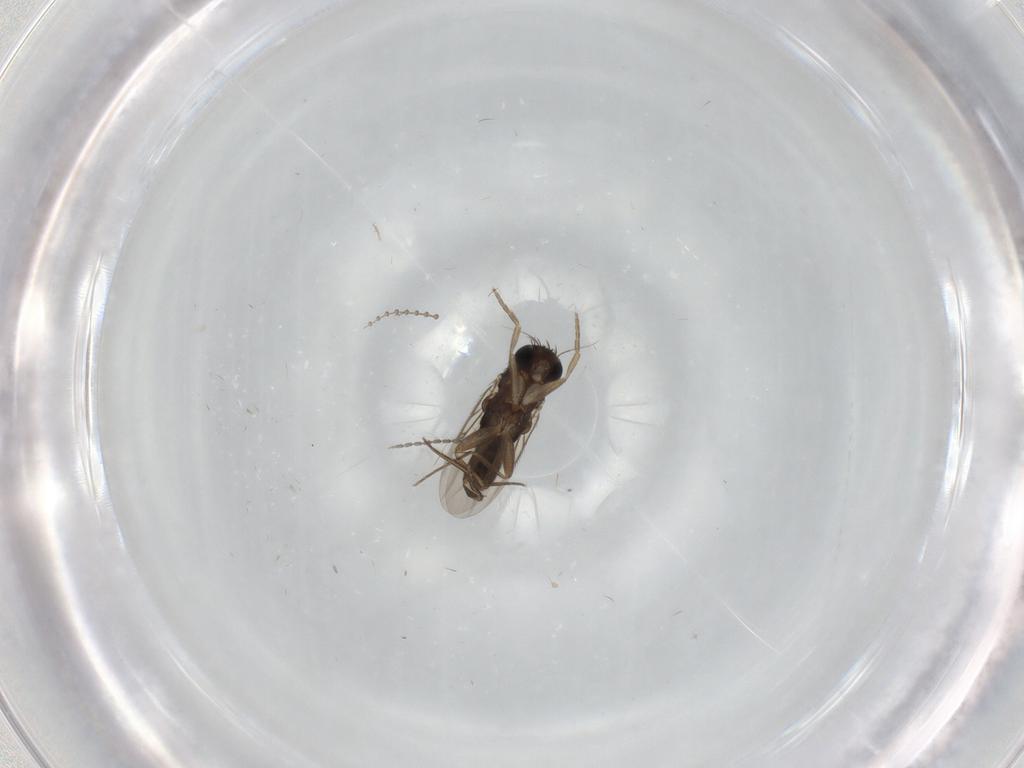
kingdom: Animalia
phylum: Arthropoda
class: Insecta
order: Diptera
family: Phoridae
